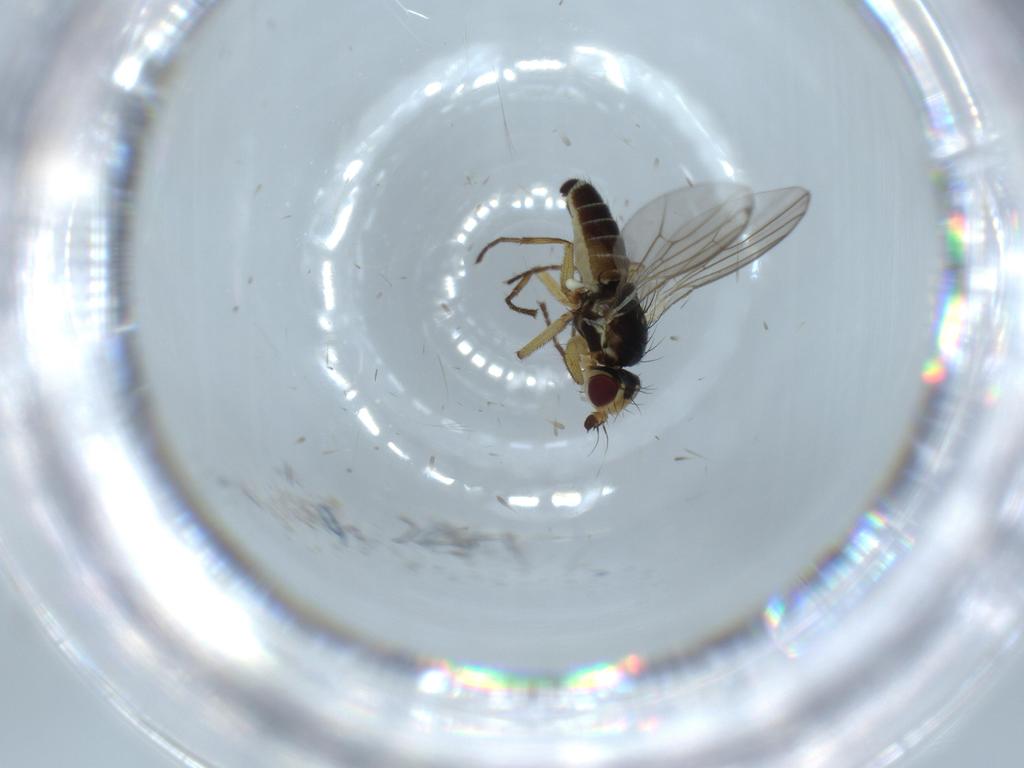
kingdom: Animalia
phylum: Arthropoda
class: Insecta
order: Diptera
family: Agromyzidae
